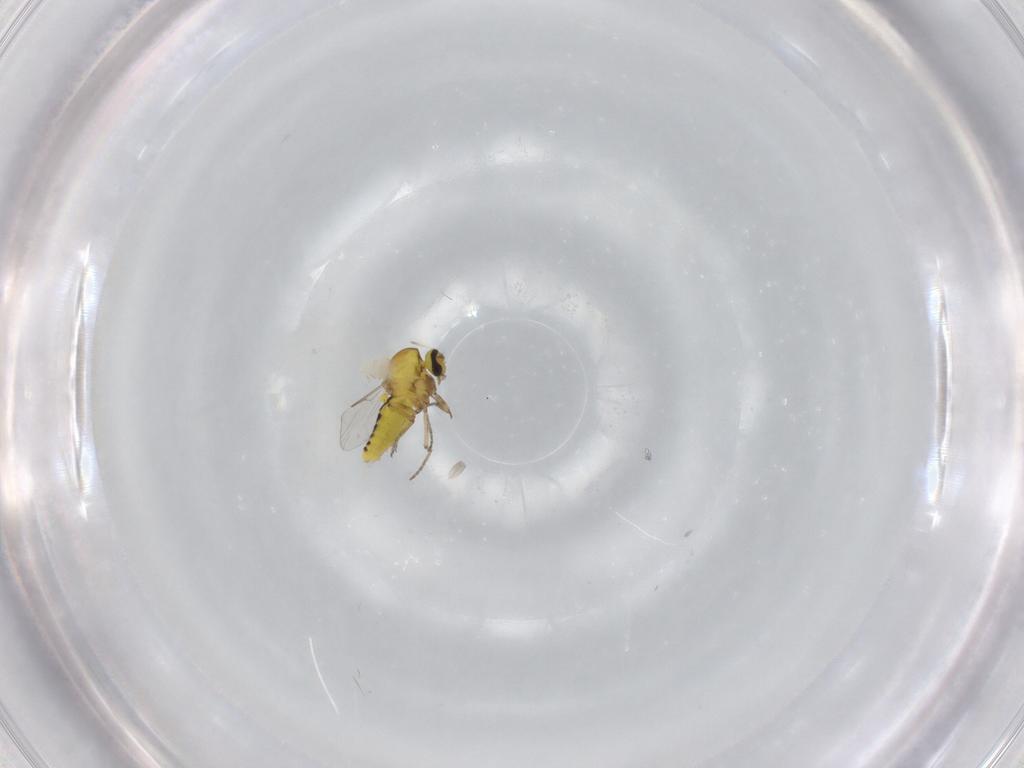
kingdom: Animalia
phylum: Arthropoda
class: Insecta
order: Diptera
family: Ceratopogonidae
